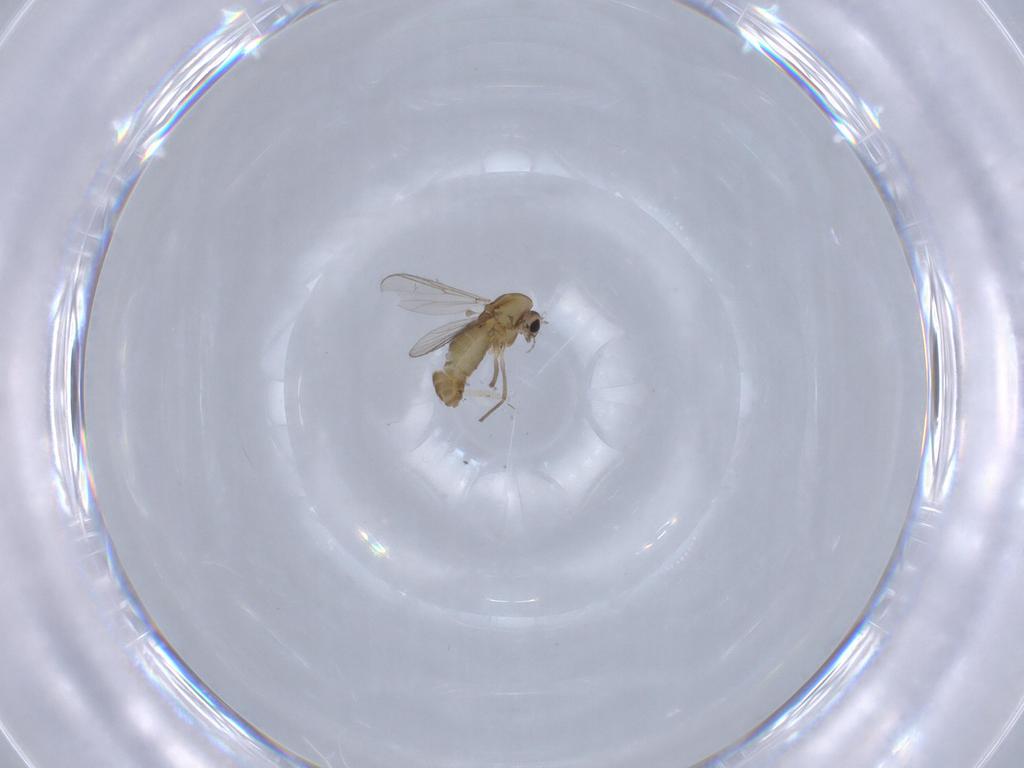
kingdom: Animalia
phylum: Arthropoda
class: Insecta
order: Diptera
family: Chironomidae
